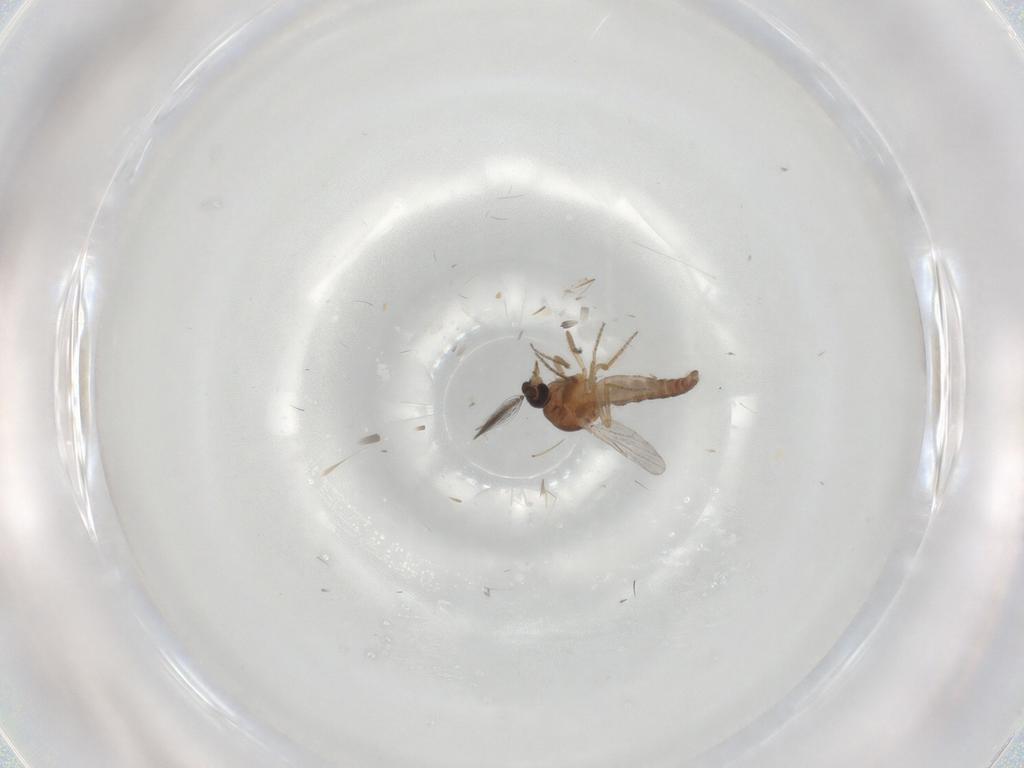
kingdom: Animalia
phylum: Arthropoda
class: Insecta
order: Diptera
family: Ceratopogonidae
